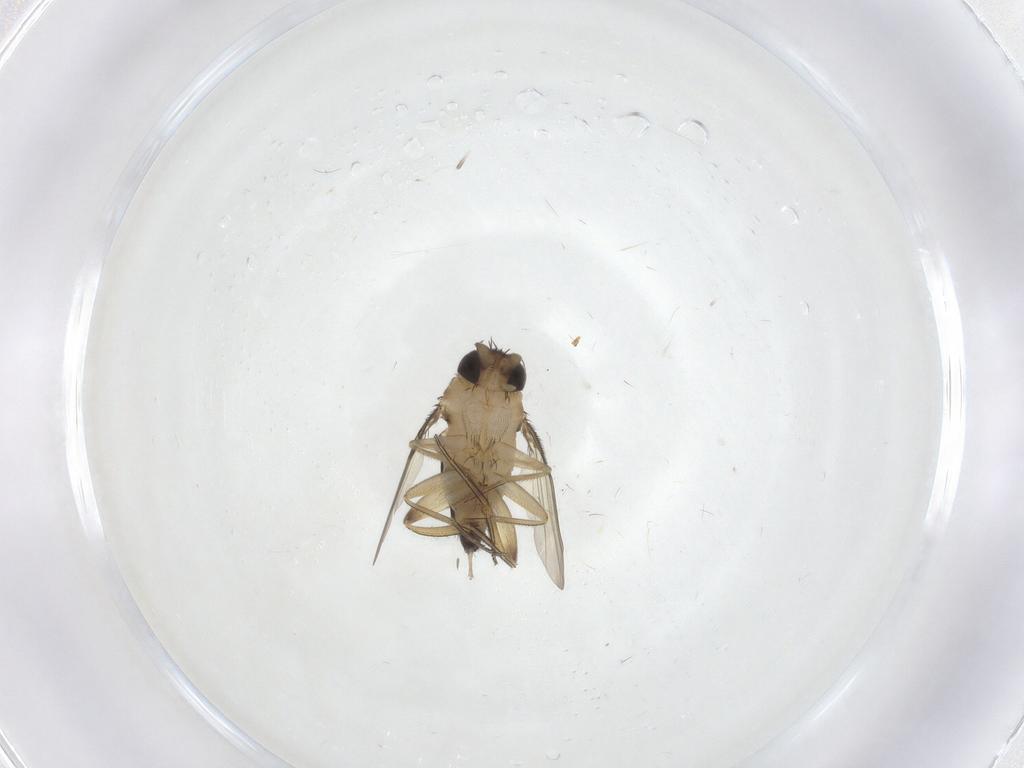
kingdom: Animalia
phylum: Arthropoda
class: Insecta
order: Diptera
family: Phoridae
